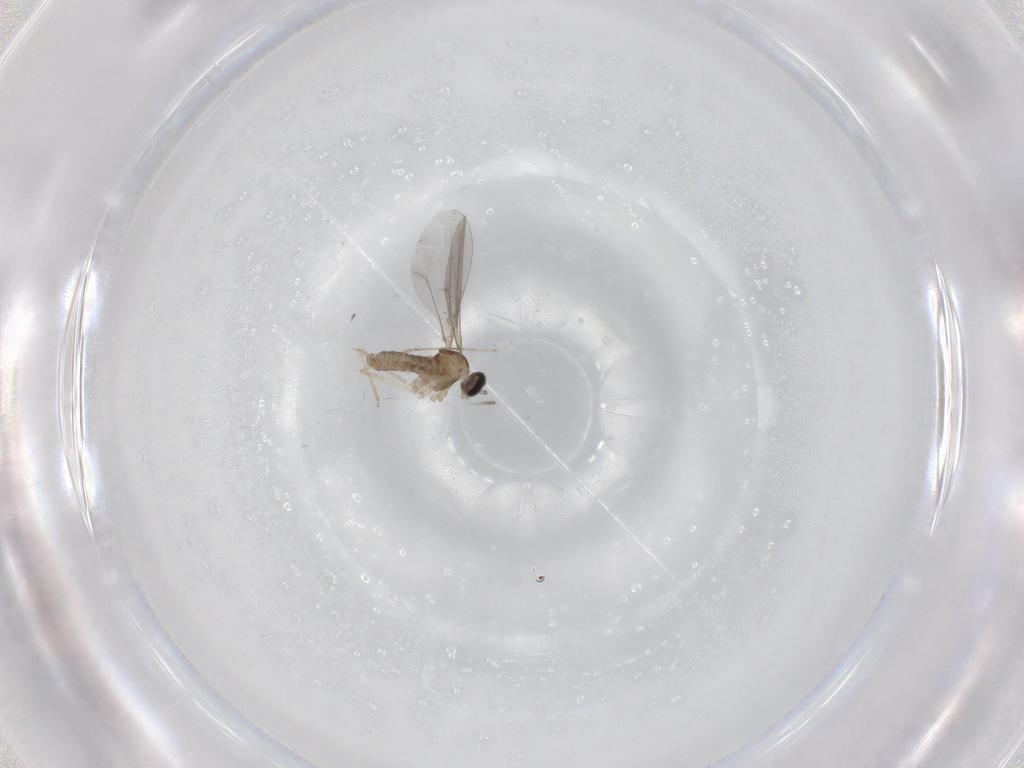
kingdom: Animalia
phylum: Arthropoda
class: Insecta
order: Diptera
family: Cecidomyiidae
